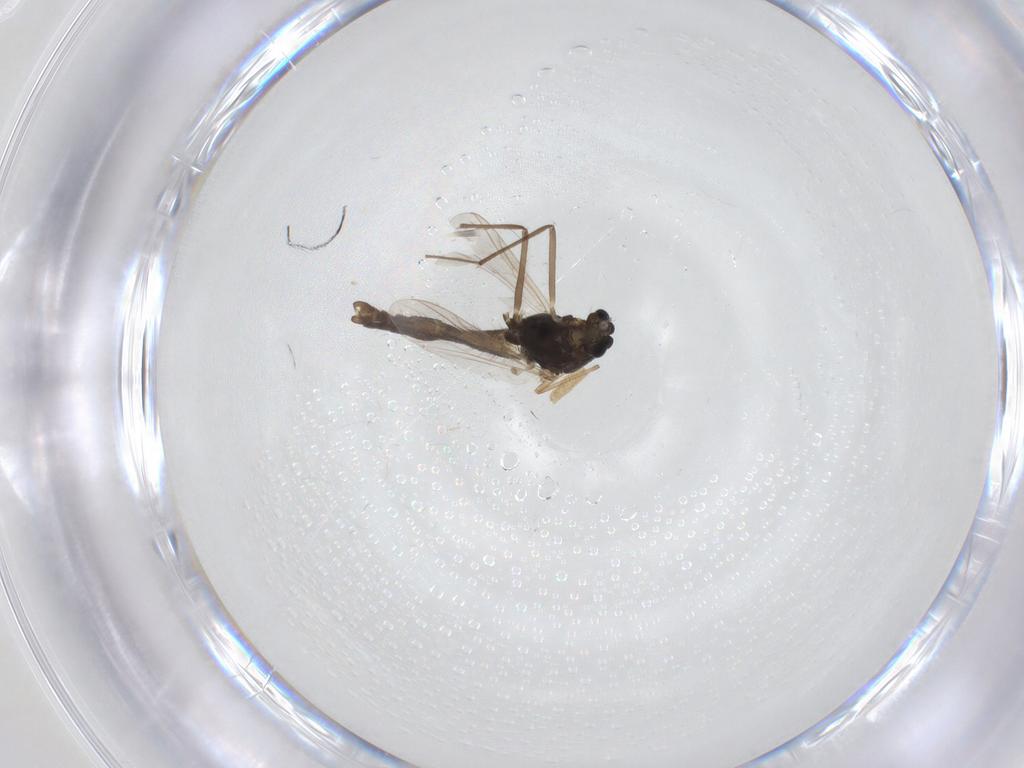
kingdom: Animalia
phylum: Arthropoda
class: Insecta
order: Diptera
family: Chironomidae
